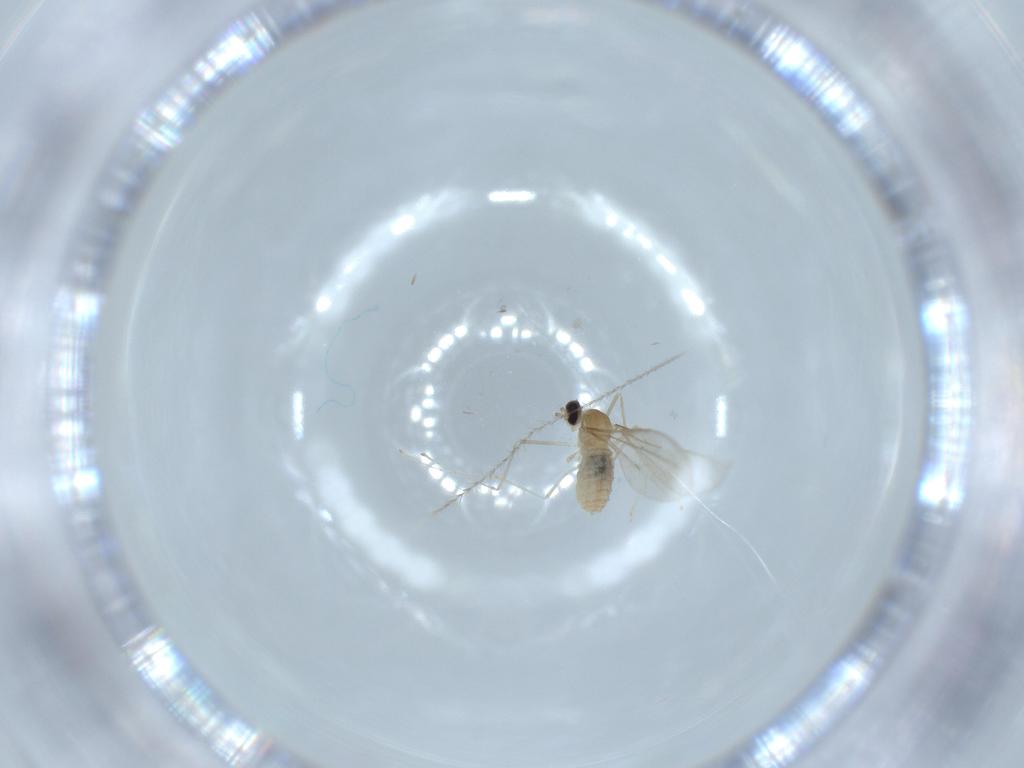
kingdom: Animalia
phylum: Arthropoda
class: Insecta
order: Diptera
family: Cecidomyiidae
